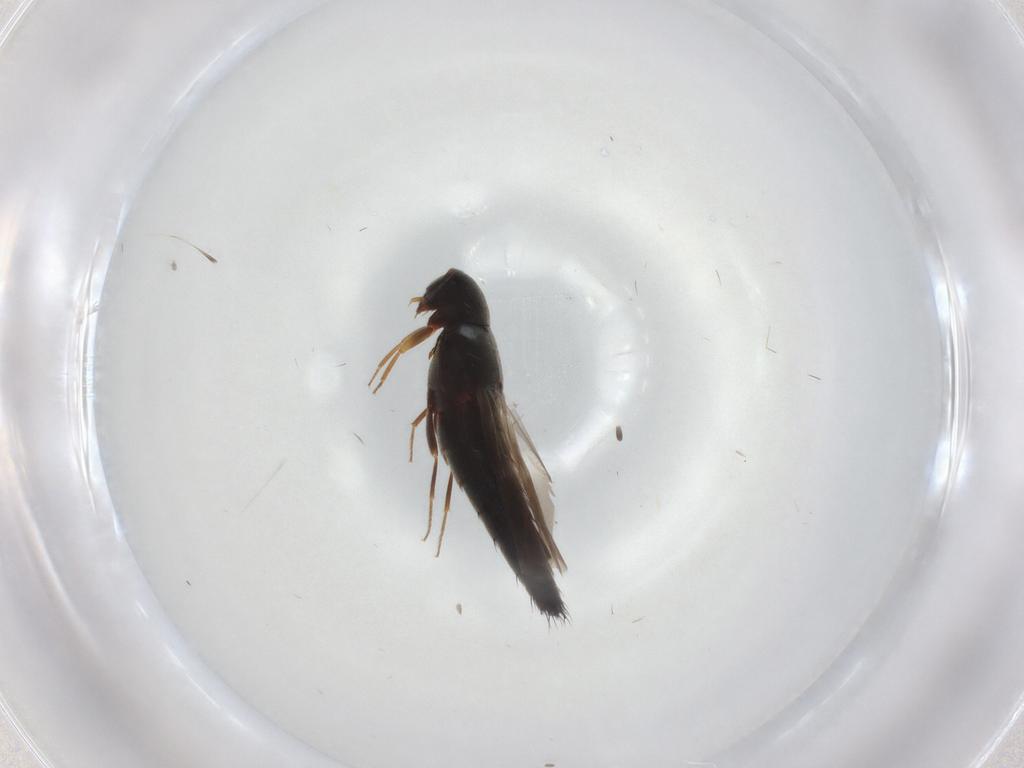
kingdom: Animalia
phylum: Arthropoda
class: Insecta
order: Coleoptera
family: Staphylinidae
